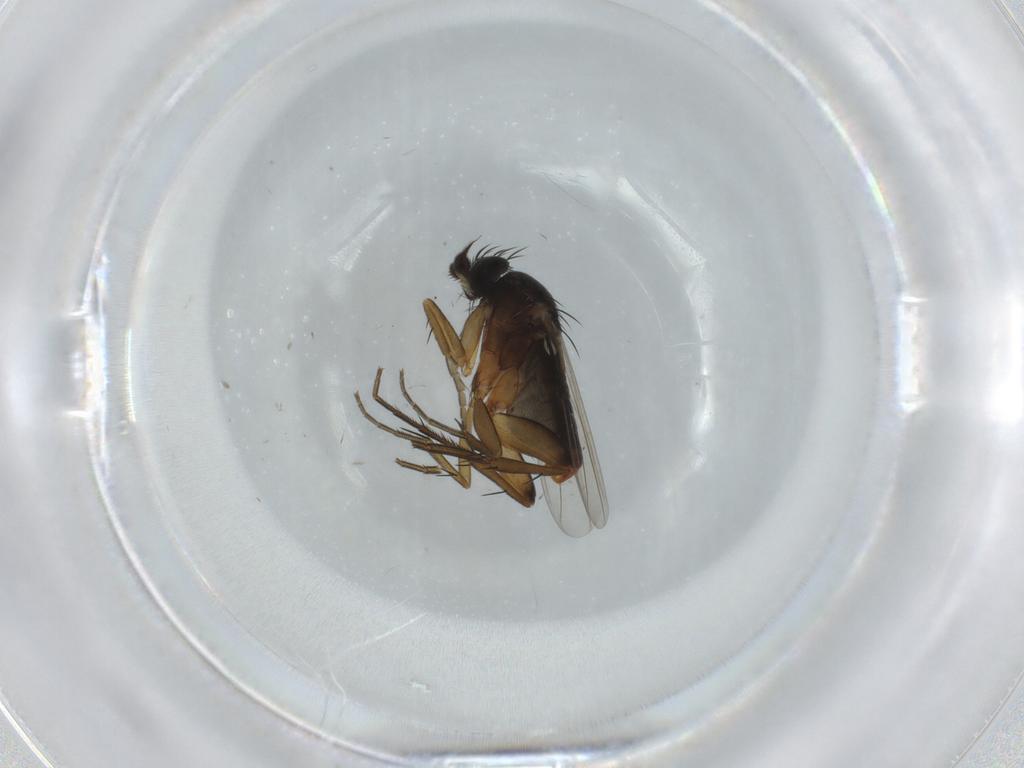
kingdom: Animalia
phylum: Arthropoda
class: Insecta
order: Diptera
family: Phoridae
